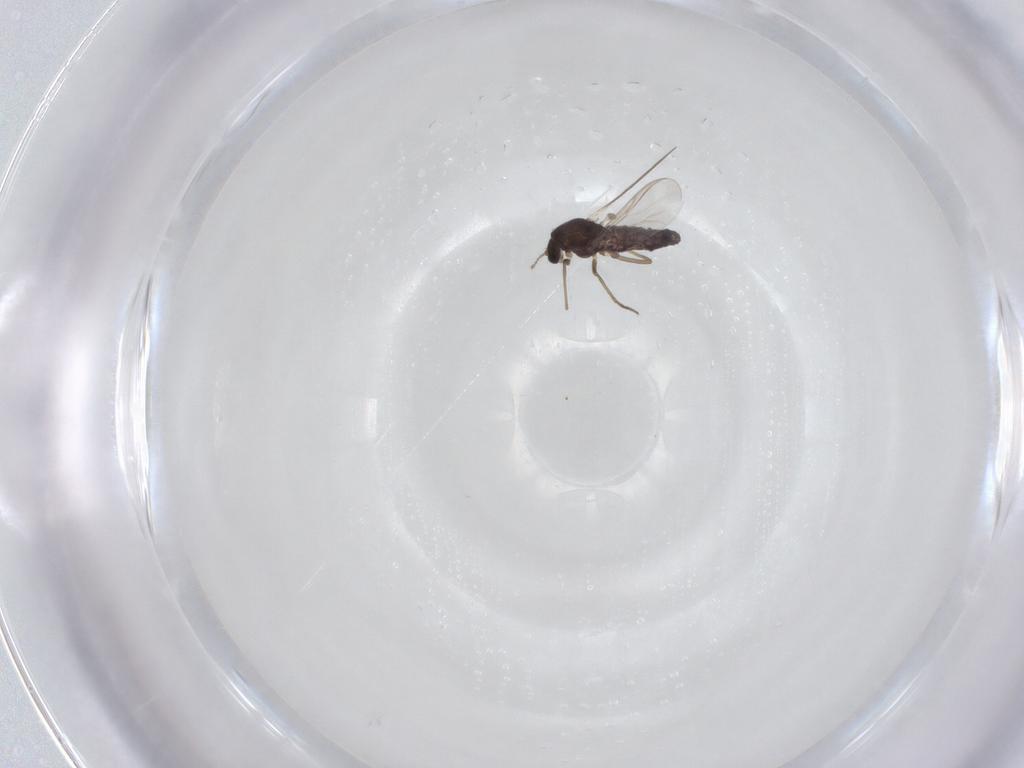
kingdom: Animalia
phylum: Arthropoda
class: Insecta
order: Diptera
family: Chironomidae
